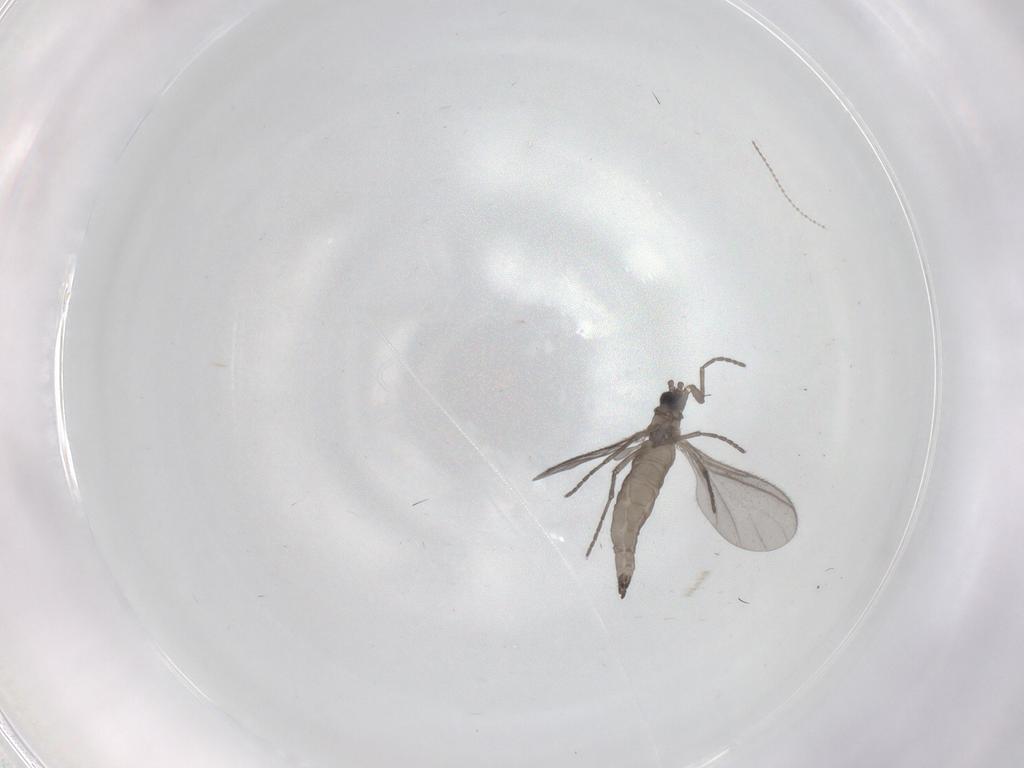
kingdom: Animalia
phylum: Arthropoda
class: Insecta
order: Diptera
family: Sciaridae
